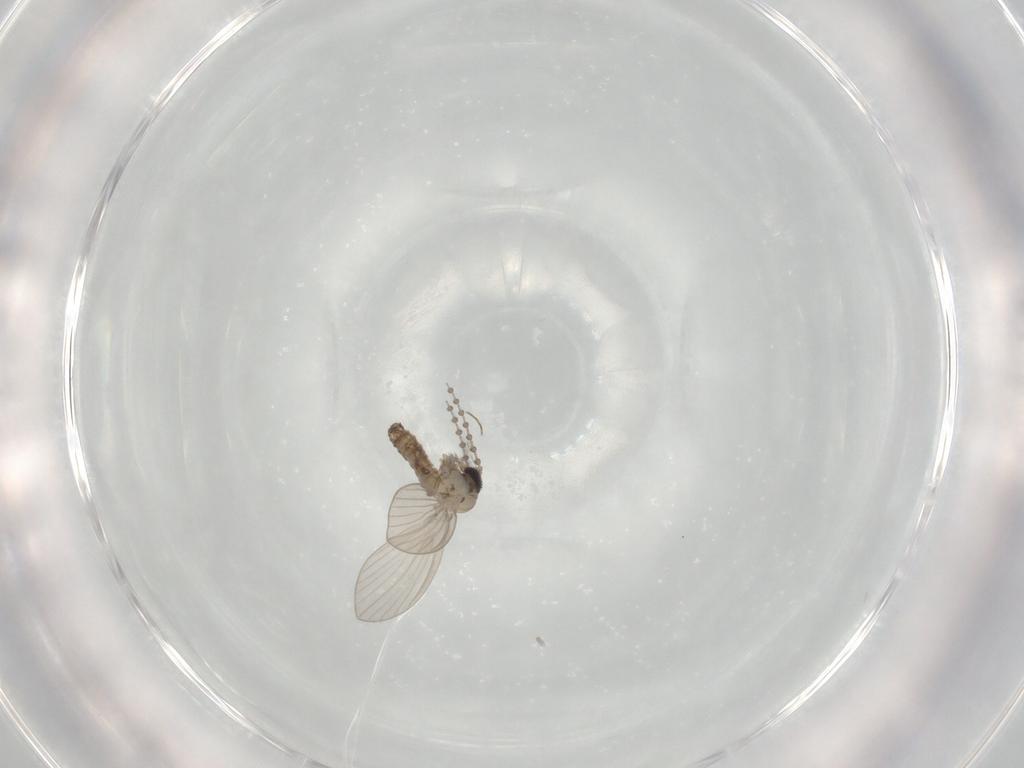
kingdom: Animalia
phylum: Arthropoda
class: Insecta
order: Diptera
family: Psychodidae
